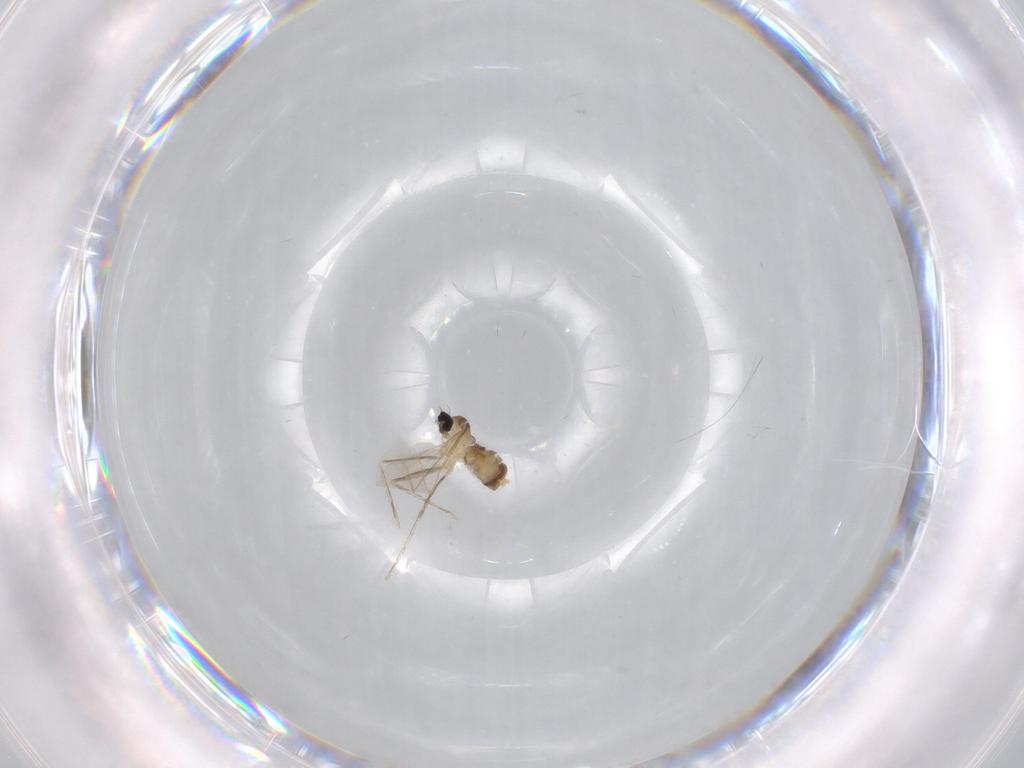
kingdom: Animalia
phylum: Arthropoda
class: Insecta
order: Diptera
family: Cecidomyiidae
